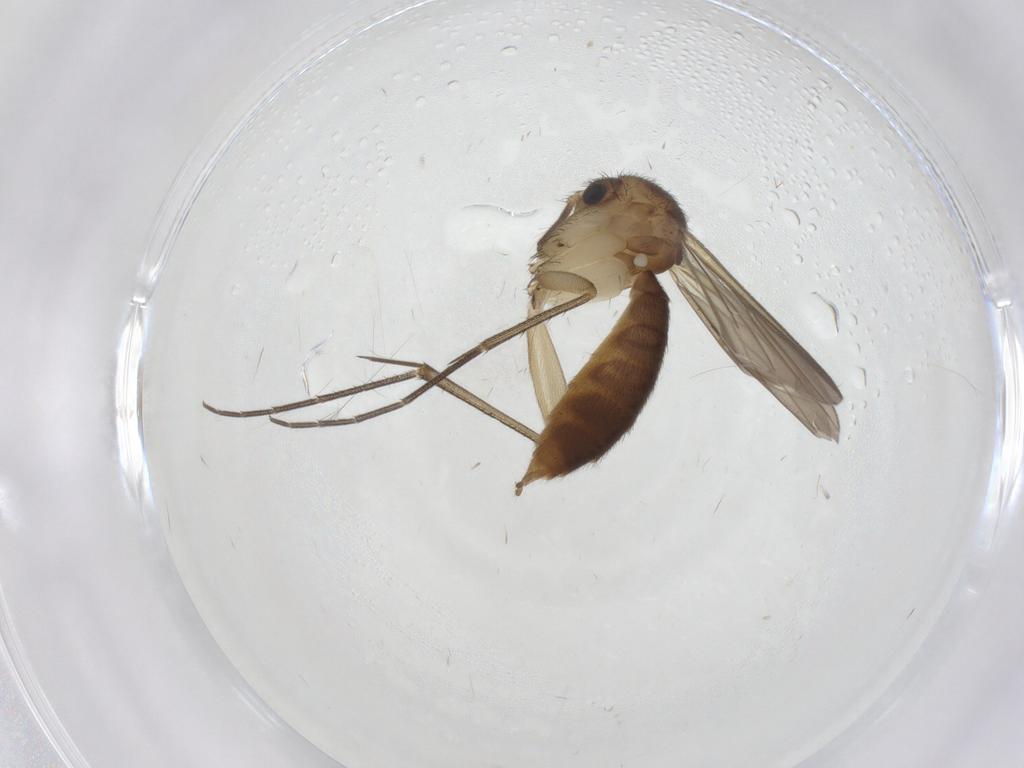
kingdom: Animalia
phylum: Arthropoda
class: Insecta
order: Diptera
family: Mycetophilidae
